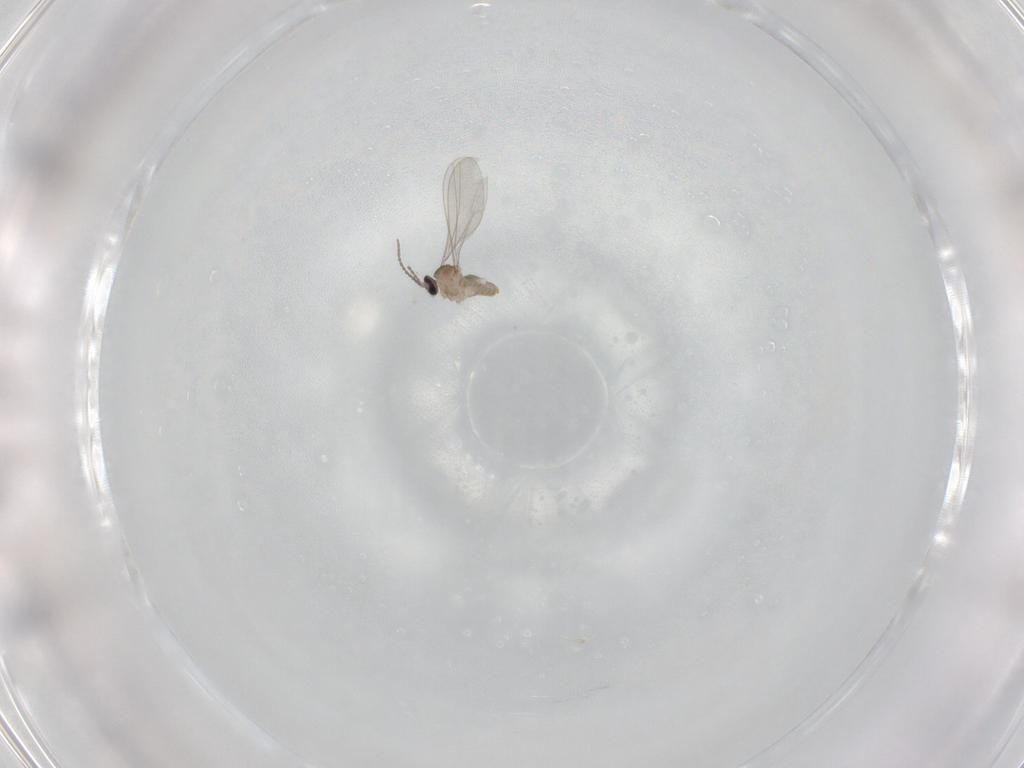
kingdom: Animalia
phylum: Arthropoda
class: Insecta
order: Diptera
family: Cecidomyiidae
